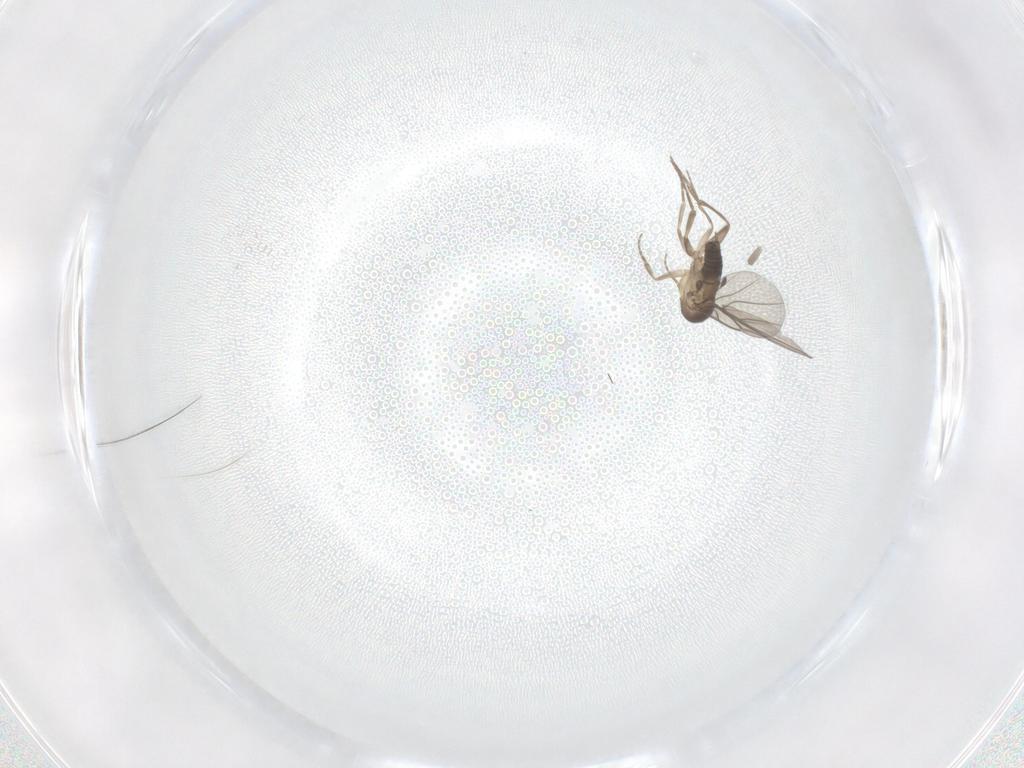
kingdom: Animalia
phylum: Arthropoda
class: Insecta
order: Diptera
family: Phoridae
